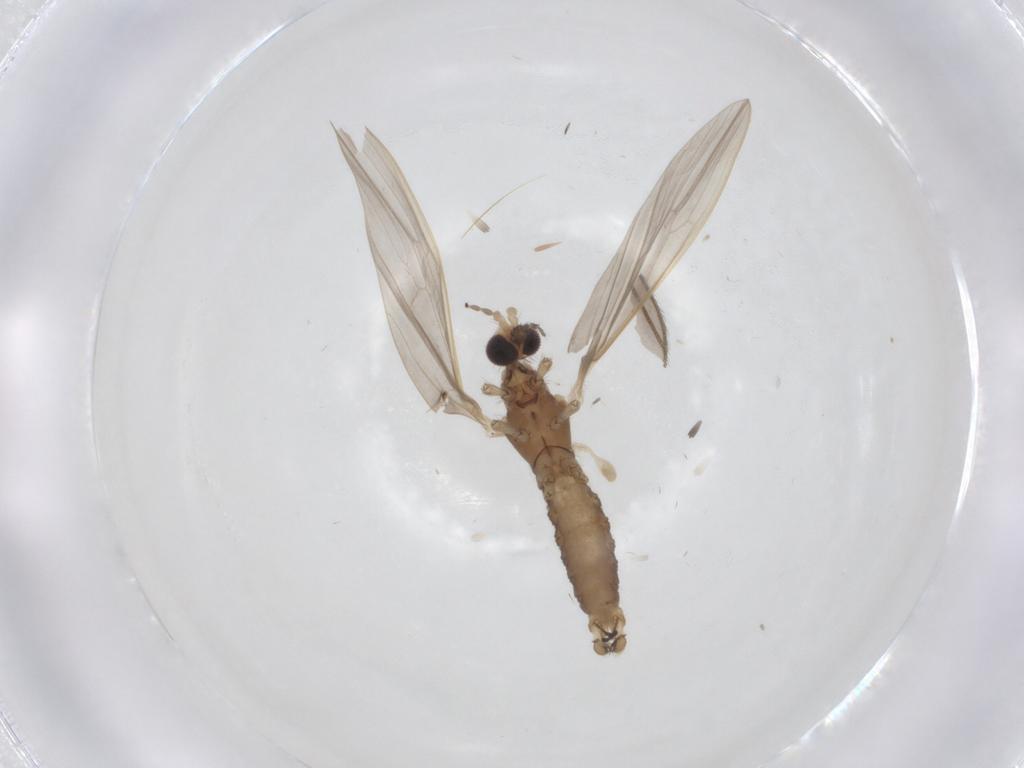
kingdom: Animalia
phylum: Arthropoda
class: Insecta
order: Diptera
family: Sciaridae
